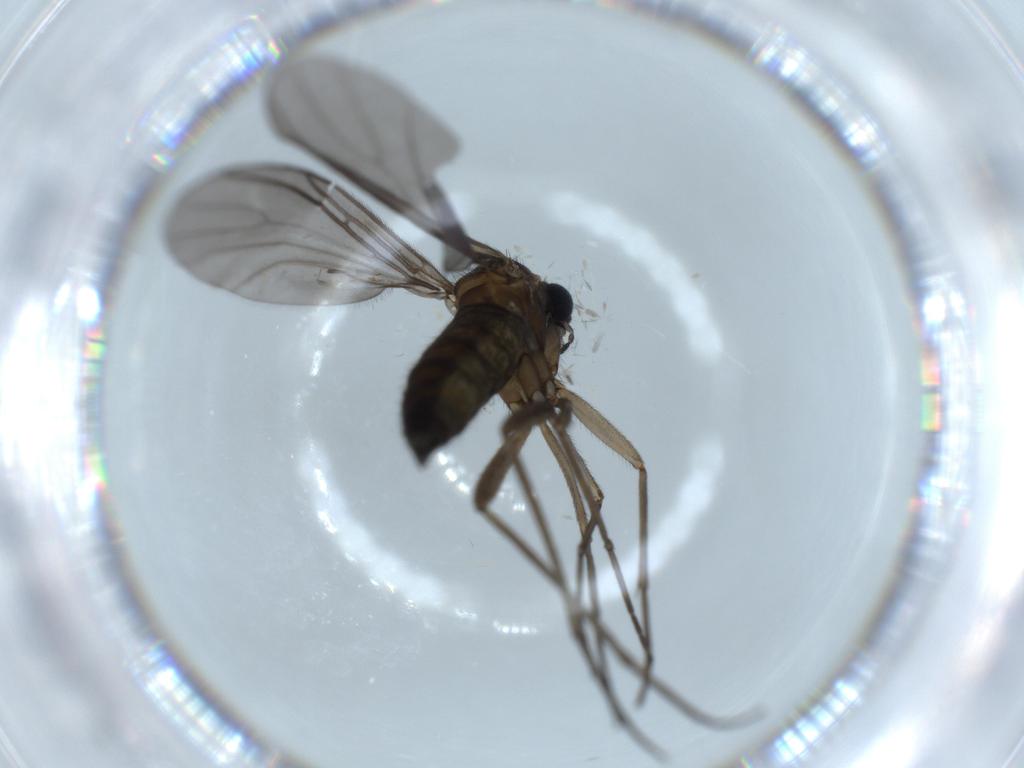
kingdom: Animalia
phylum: Arthropoda
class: Insecta
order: Diptera
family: Sciaridae
